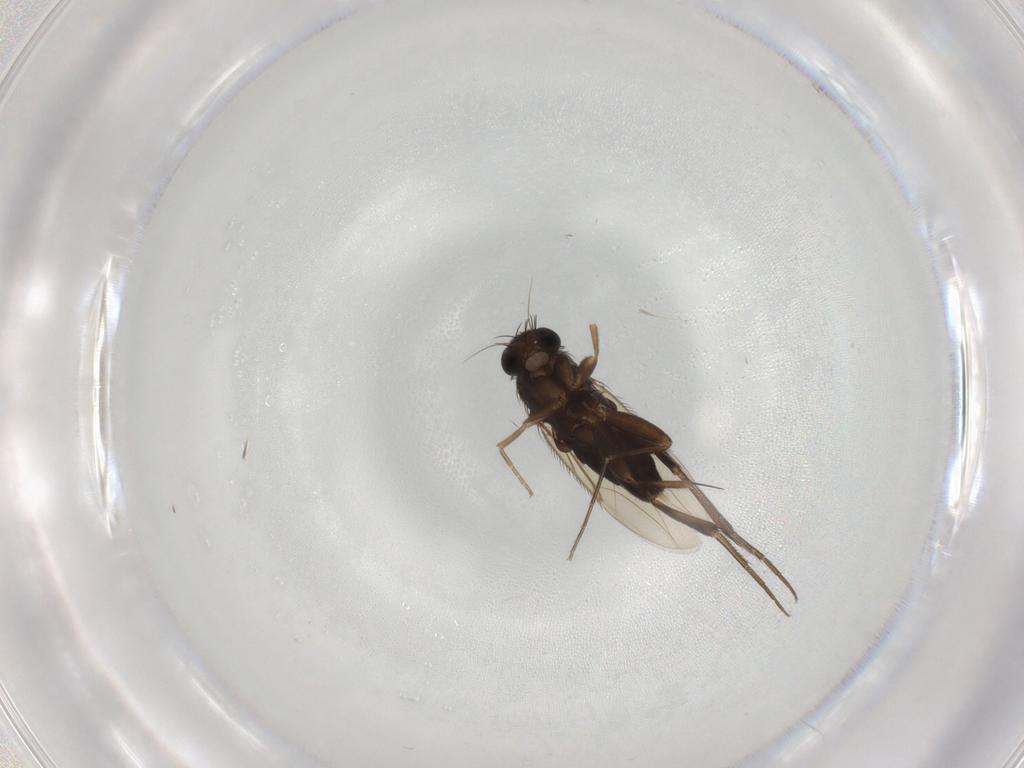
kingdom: Animalia
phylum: Arthropoda
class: Insecta
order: Diptera
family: Phoridae
